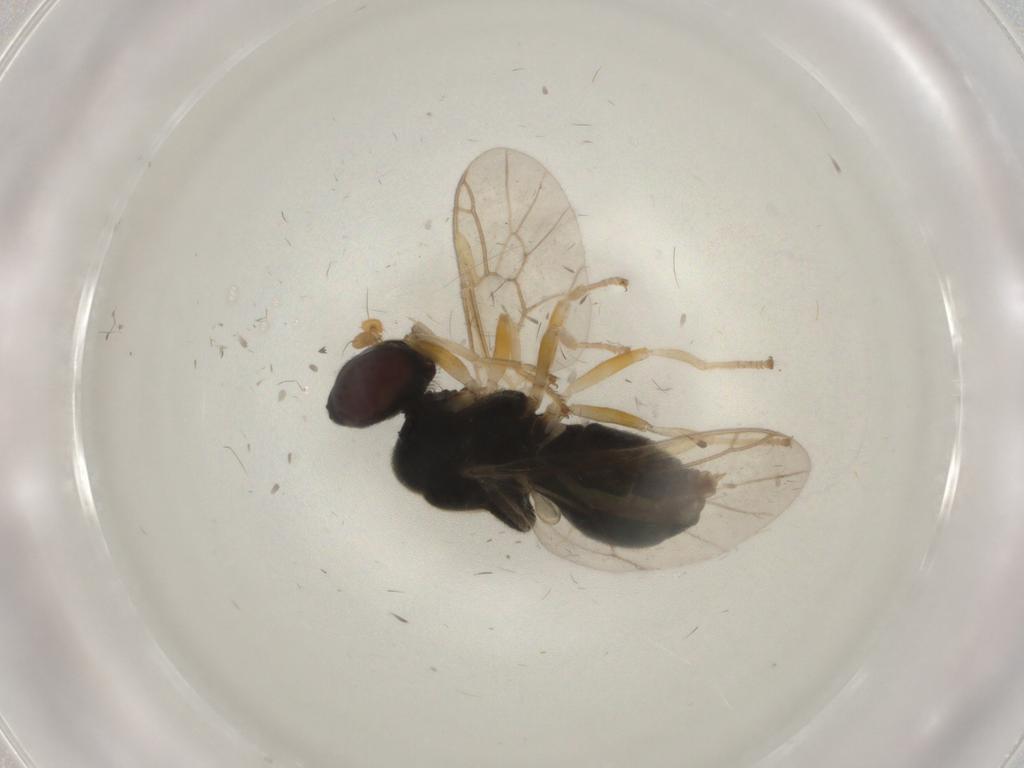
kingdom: Animalia
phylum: Arthropoda
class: Insecta
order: Diptera
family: Stratiomyidae
